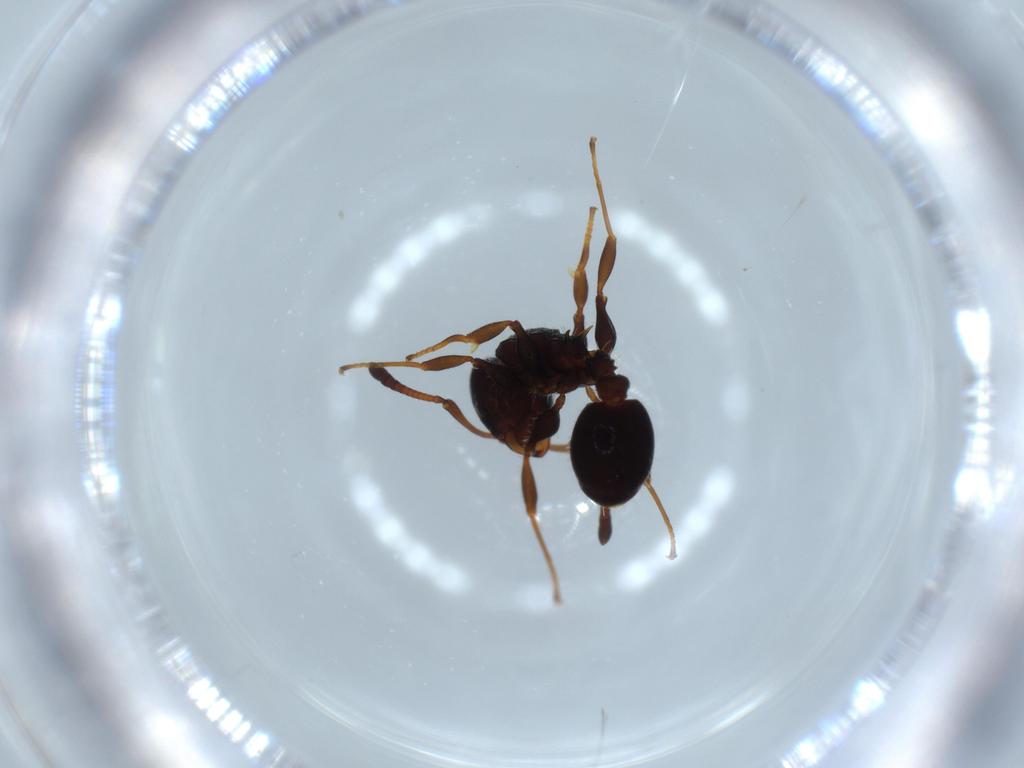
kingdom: Animalia
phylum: Arthropoda
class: Insecta
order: Hymenoptera
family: Formicidae
